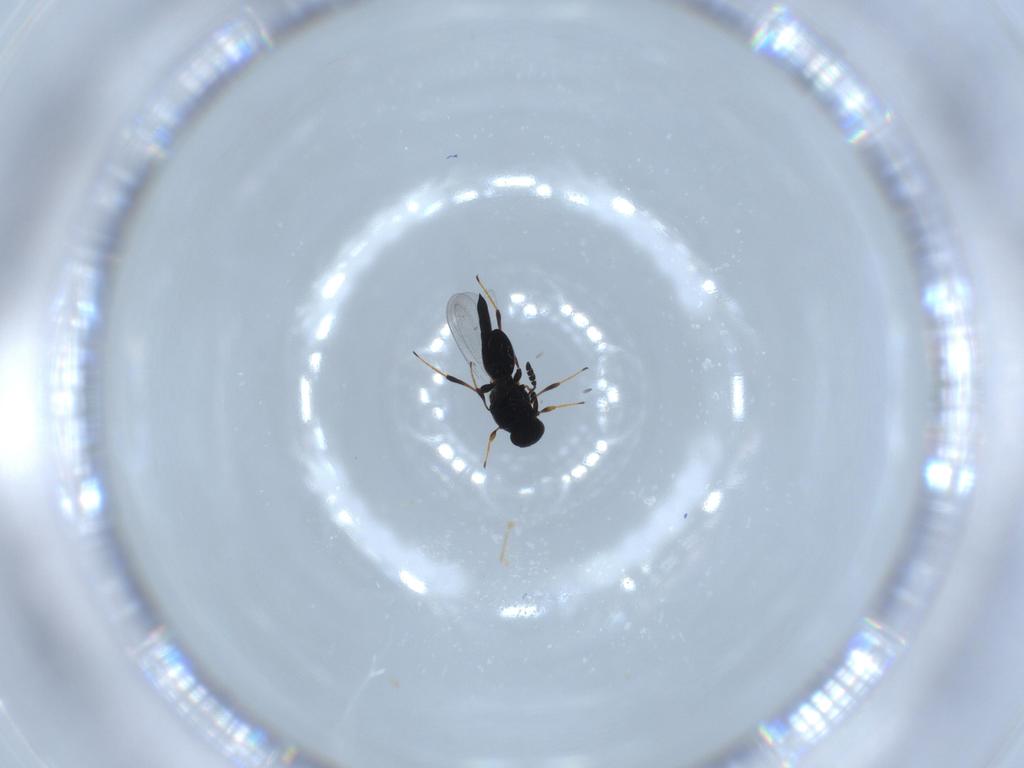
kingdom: Animalia
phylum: Arthropoda
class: Insecta
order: Hymenoptera
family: Platygastridae
